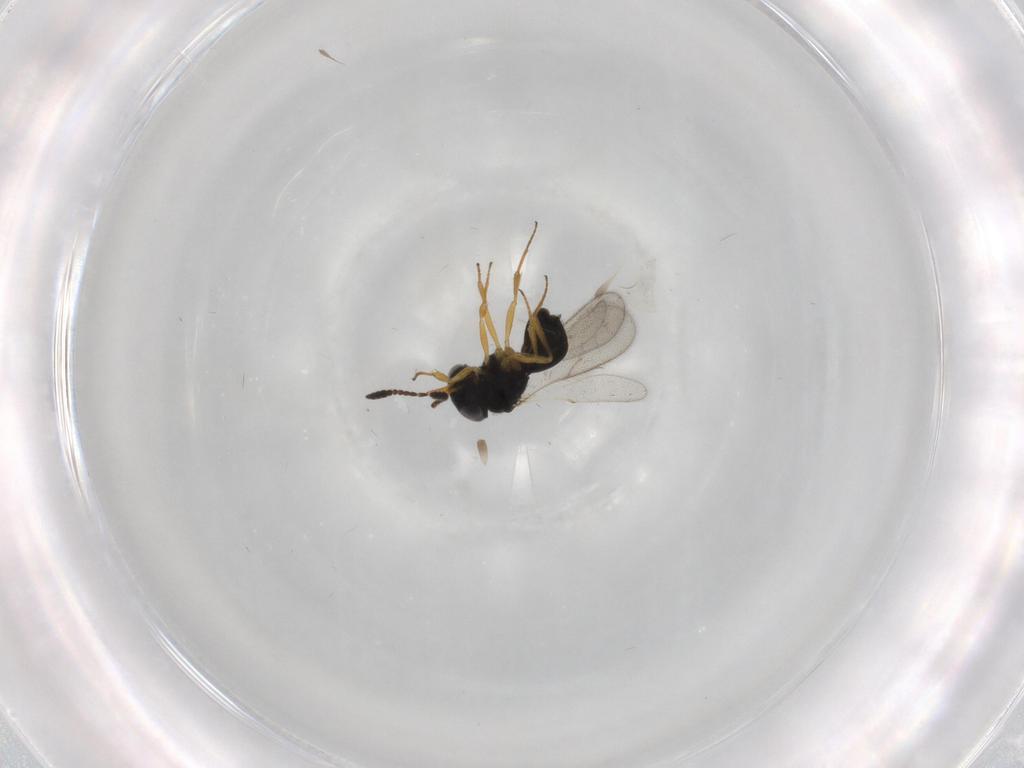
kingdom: Animalia
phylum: Arthropoda
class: Insecta
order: Hymenoptera
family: Scelionidae
